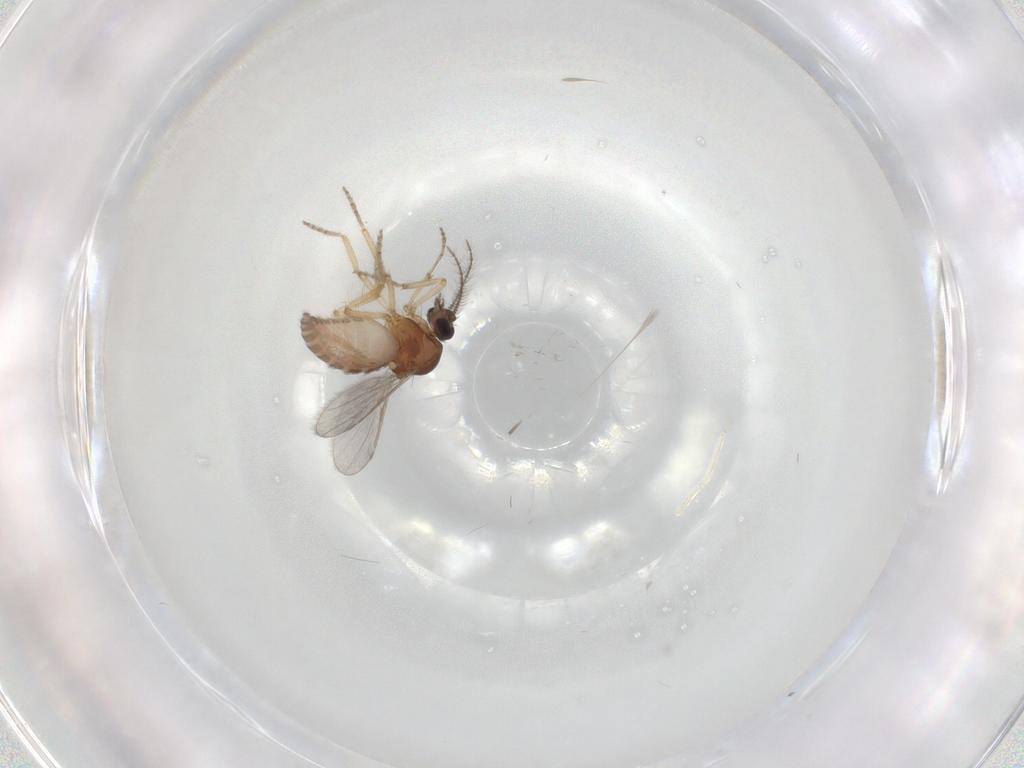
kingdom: Animalia
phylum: Arthropoda
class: Insecta
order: Diptera
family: Ceratopogonidae
